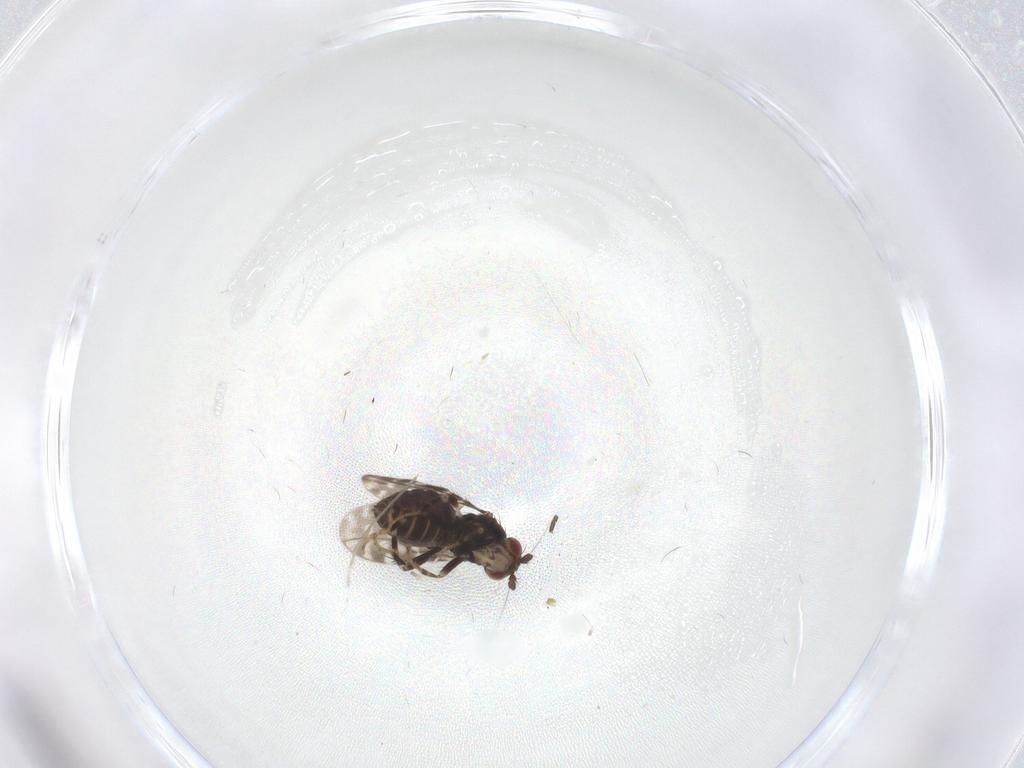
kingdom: Animalia
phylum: Arthropoda
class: Insecta
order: Diptera
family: Sphaeroceridae
